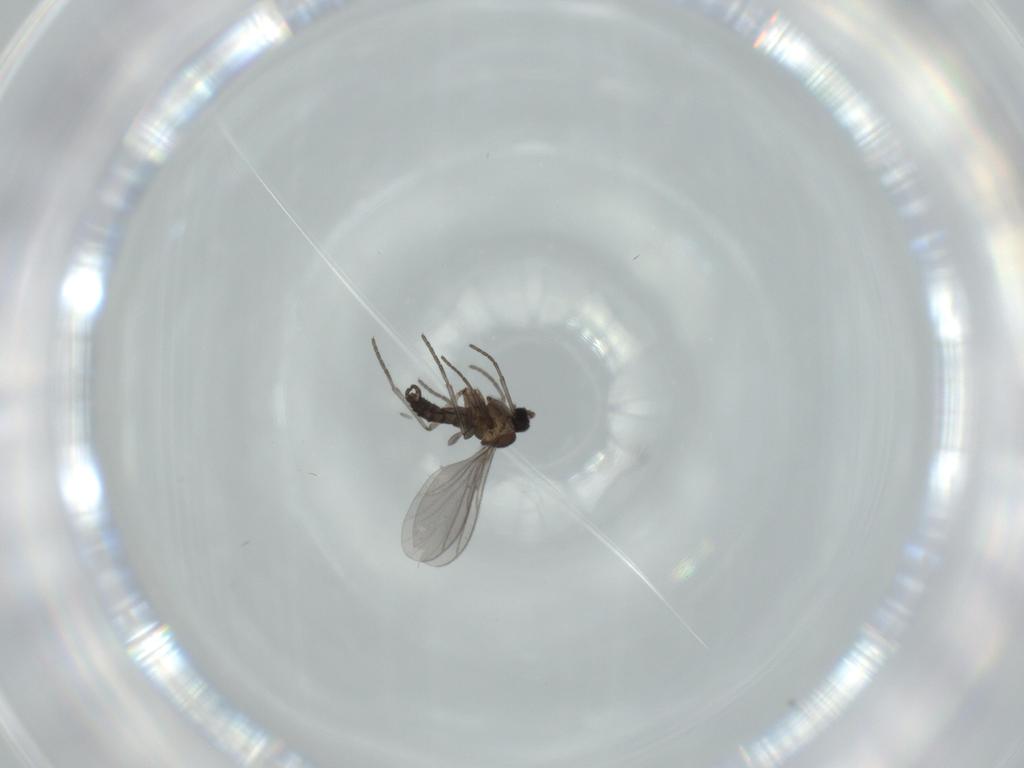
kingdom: Animalia
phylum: Arthropoda
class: Insecta
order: Diptera
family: Sciaridae
